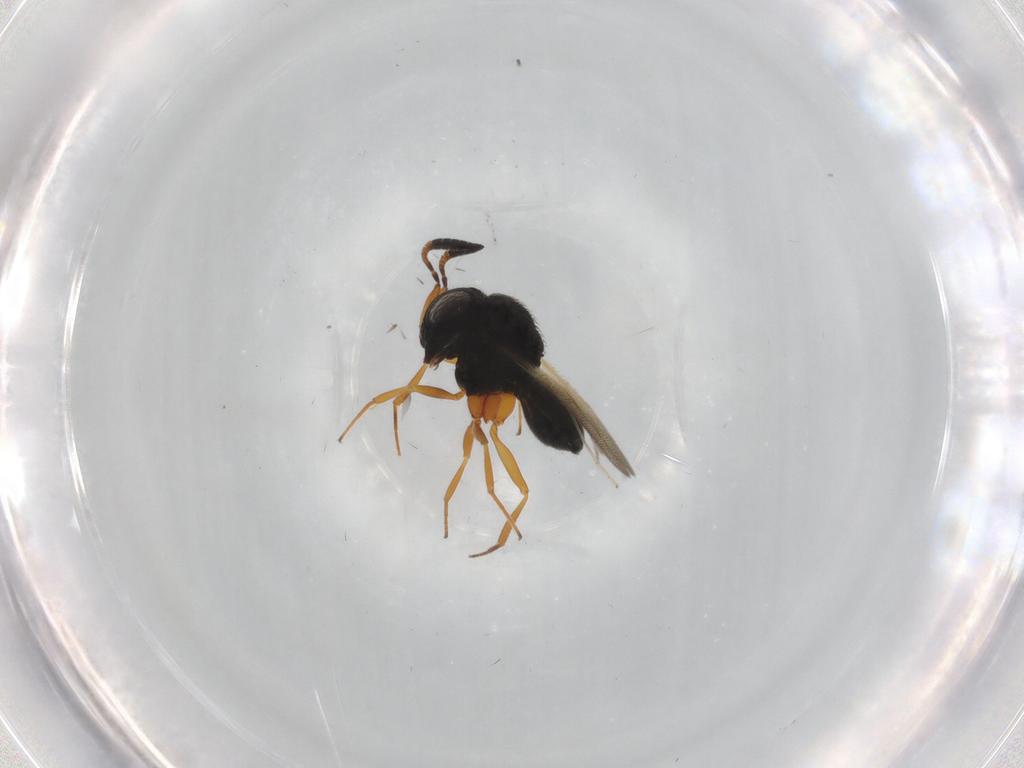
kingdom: Animalia
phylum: Arthropoda
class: Insecta
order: Hymenoptera
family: Scelionidae
